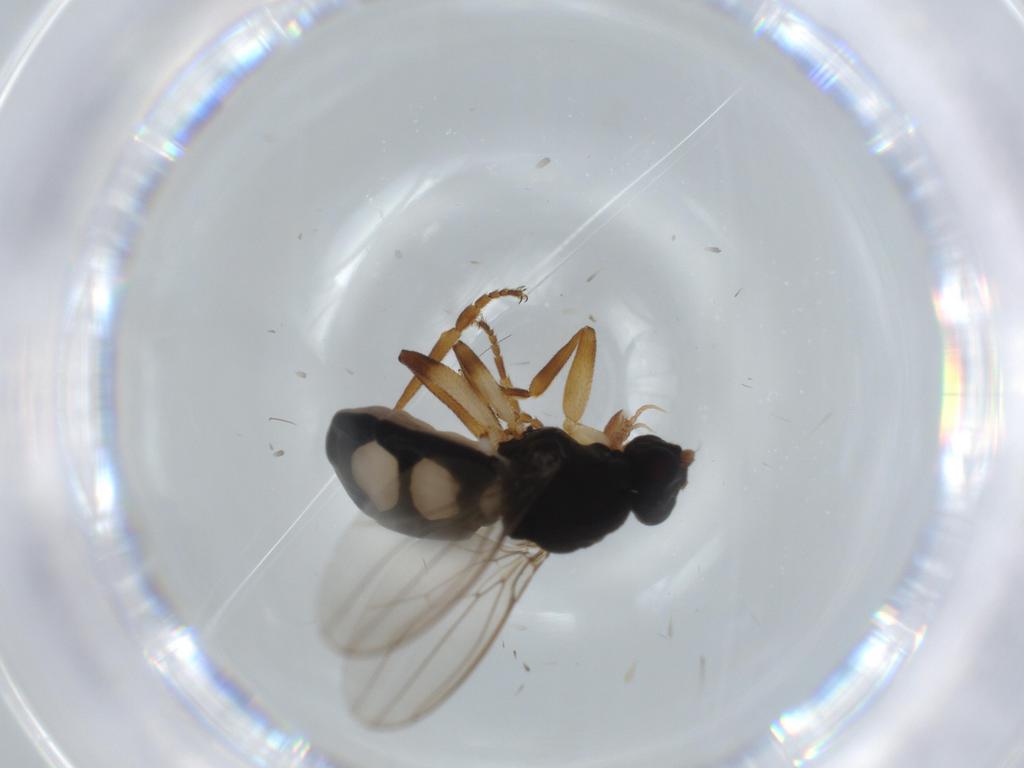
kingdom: Animalia
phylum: Arthropoda
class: Insecta
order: Diptera
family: Sphaeroceridae
